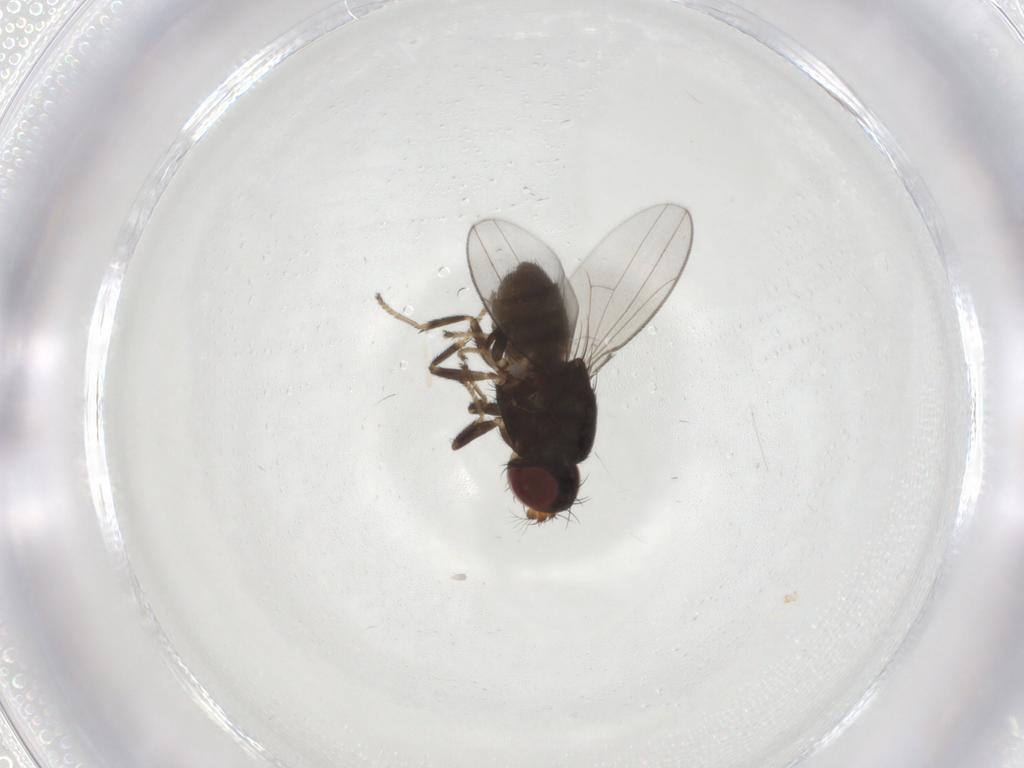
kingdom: Animalia
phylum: Arthropoda
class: Insecta
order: Diptera
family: Ephydridae
